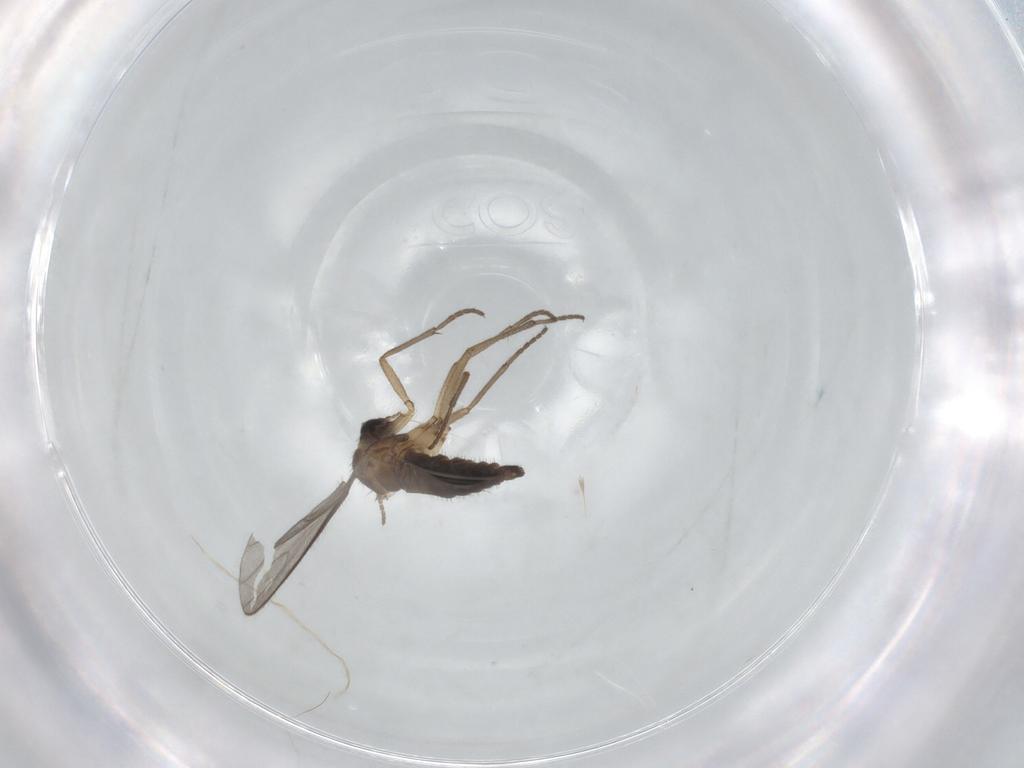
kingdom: Animalia
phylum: Arthropoda
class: Insecta
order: Diptera
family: Sciaridae
